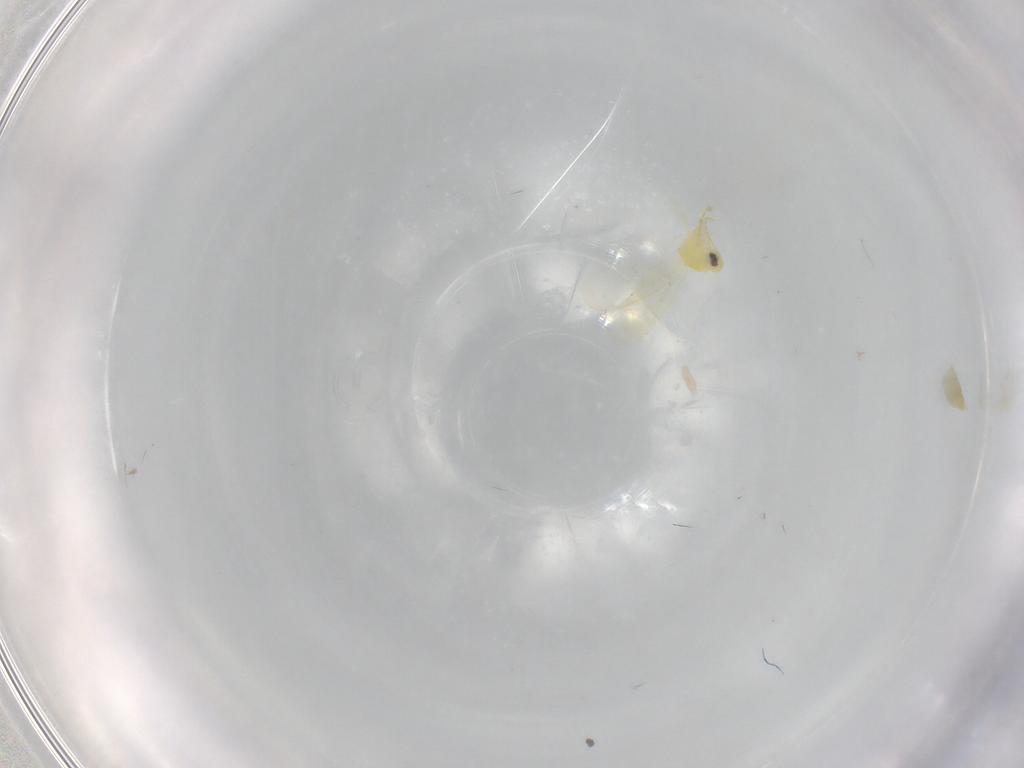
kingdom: Animalia
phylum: Arthropoda
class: Insecta
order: Hemiptera
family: Aleyrodidae
